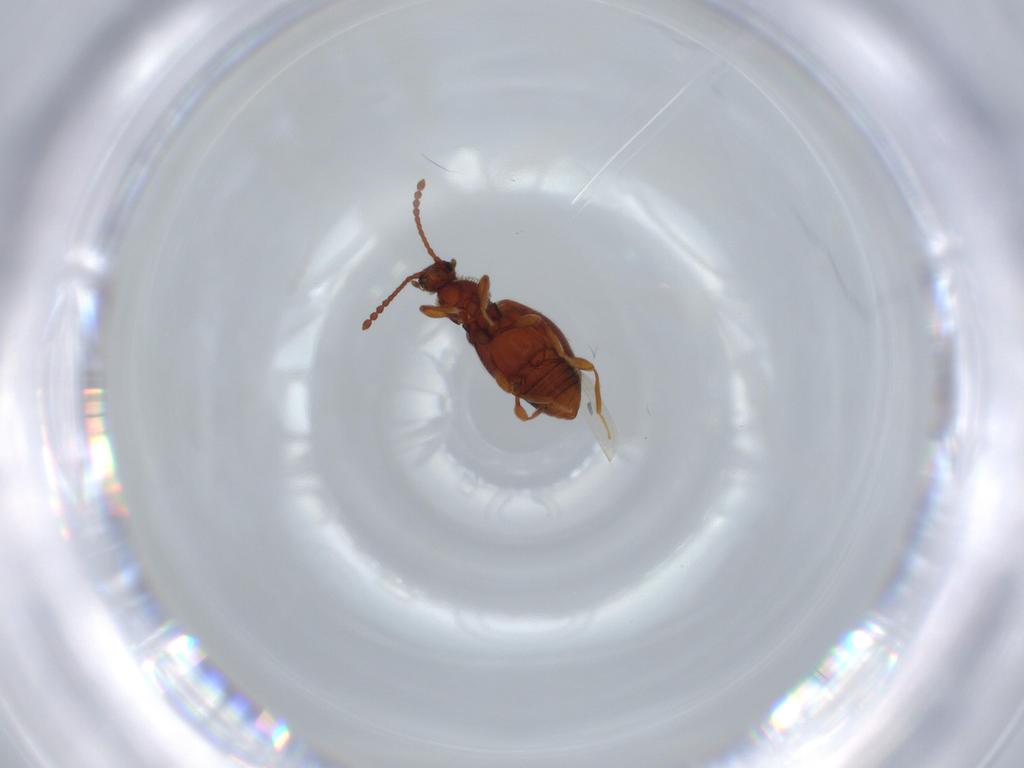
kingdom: Animalia
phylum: Arthropoda
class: Insecta
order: Coleoptera
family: Staphylinidae
